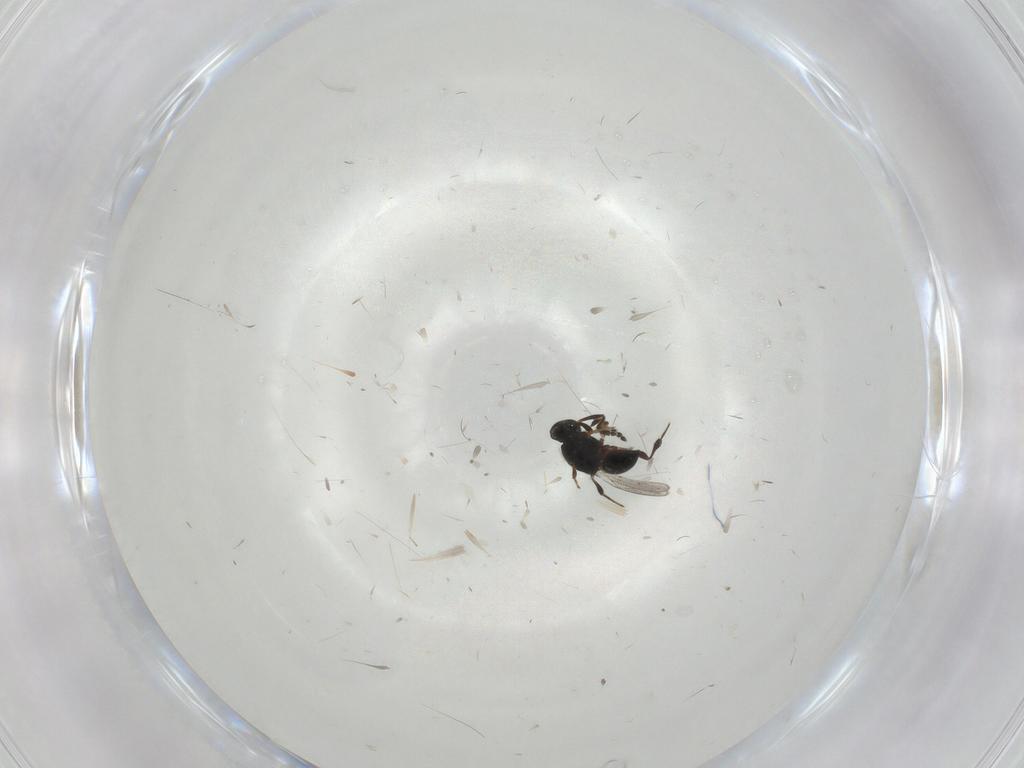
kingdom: Animalia
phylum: Arthropoda
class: Insecta
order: Hymenoptera
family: Platygastridae
